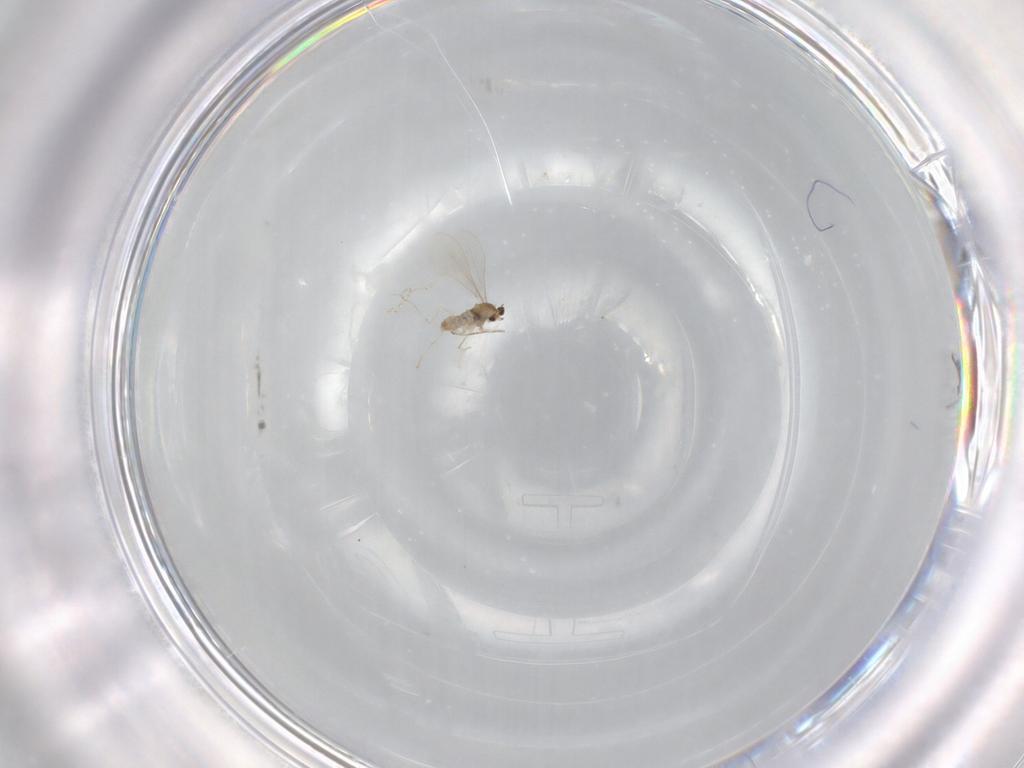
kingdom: Animalia
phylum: Arthropoda
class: Insecta
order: Diptera
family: Cecidomyiidae
